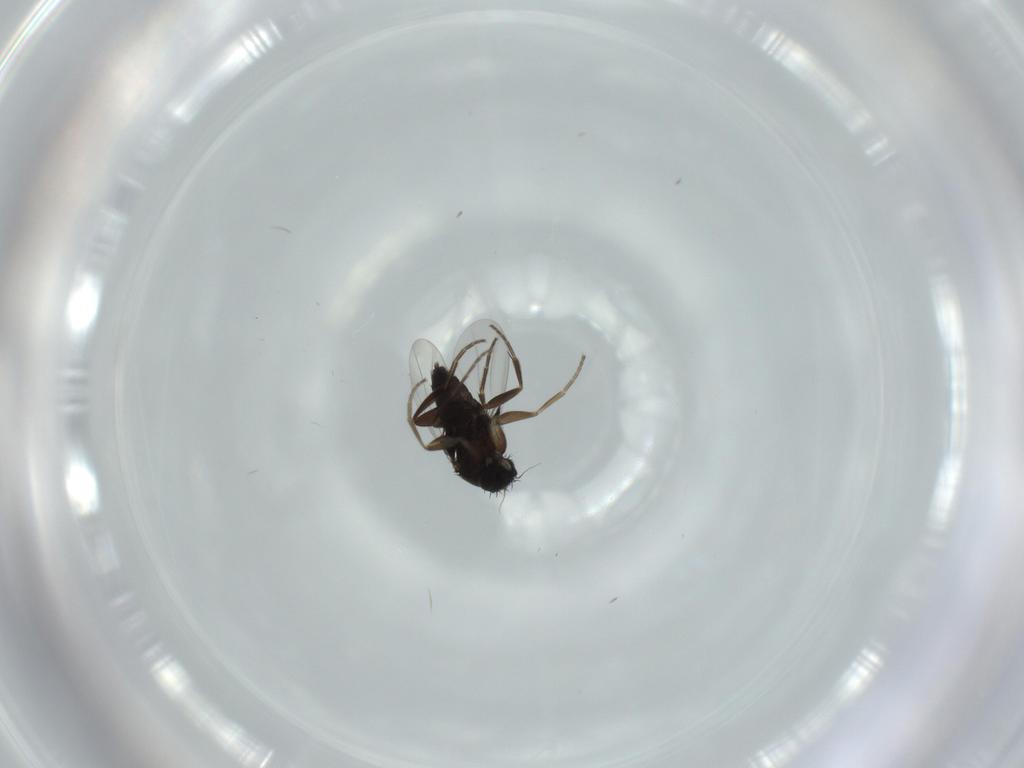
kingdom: Animalia
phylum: Arthropoda
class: Insecta
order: Diptera
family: Phoridae
